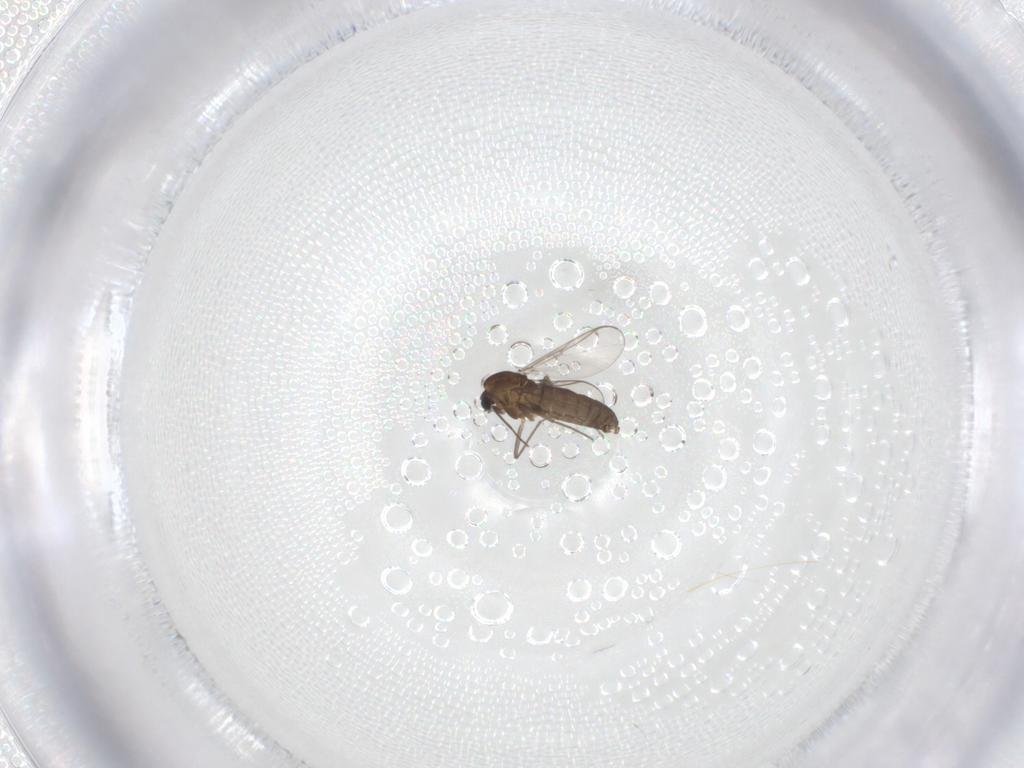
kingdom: Animalia
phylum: Arthropoda
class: Insecta
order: Diptera
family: Chironomidae
